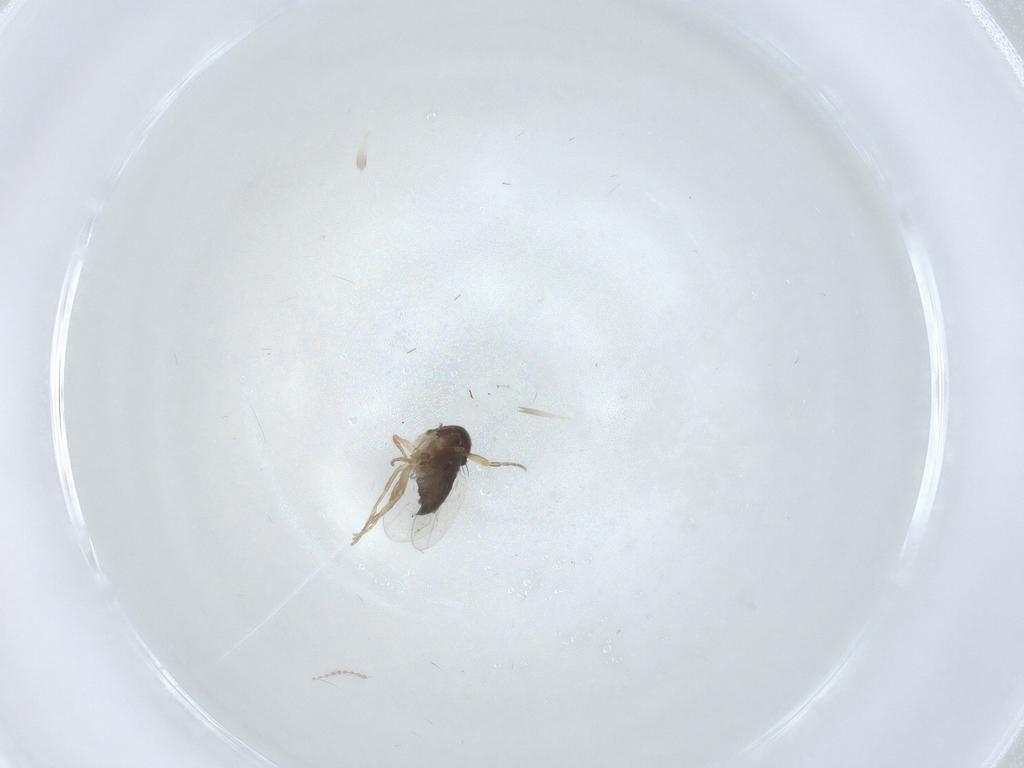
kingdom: Animalia
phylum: Arthropoda
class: Insecta
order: Diptera
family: Phoridae
